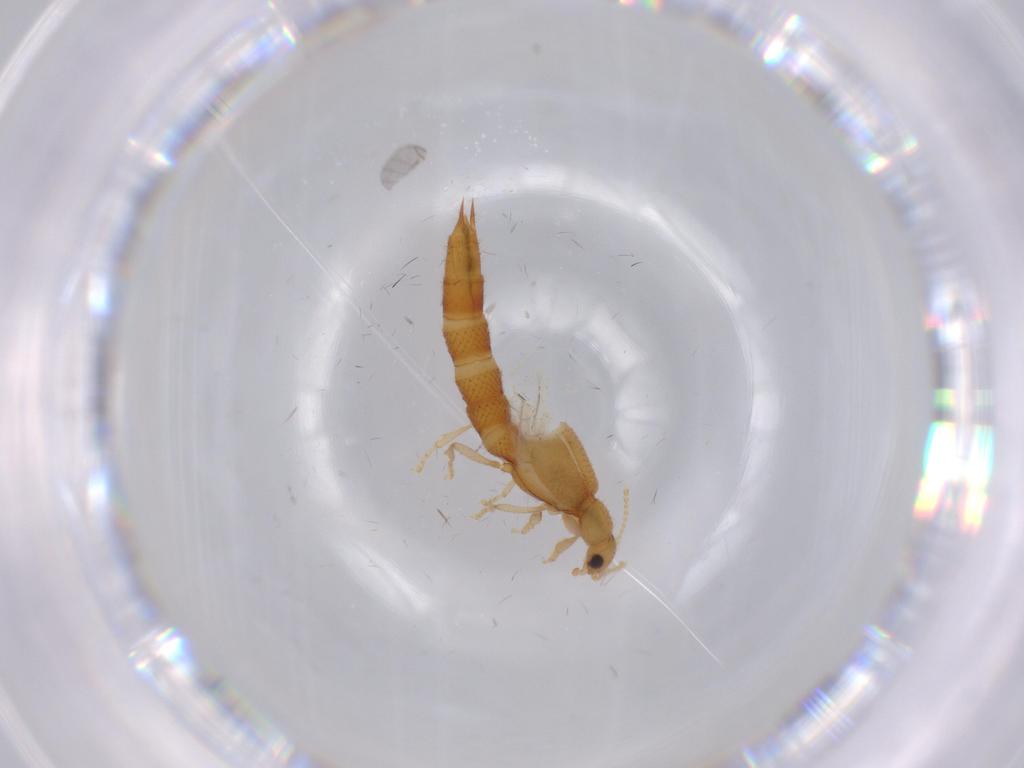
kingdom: Animalia
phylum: Arthropoda
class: Insecta
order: Coleoptera
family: Staphylinidae
